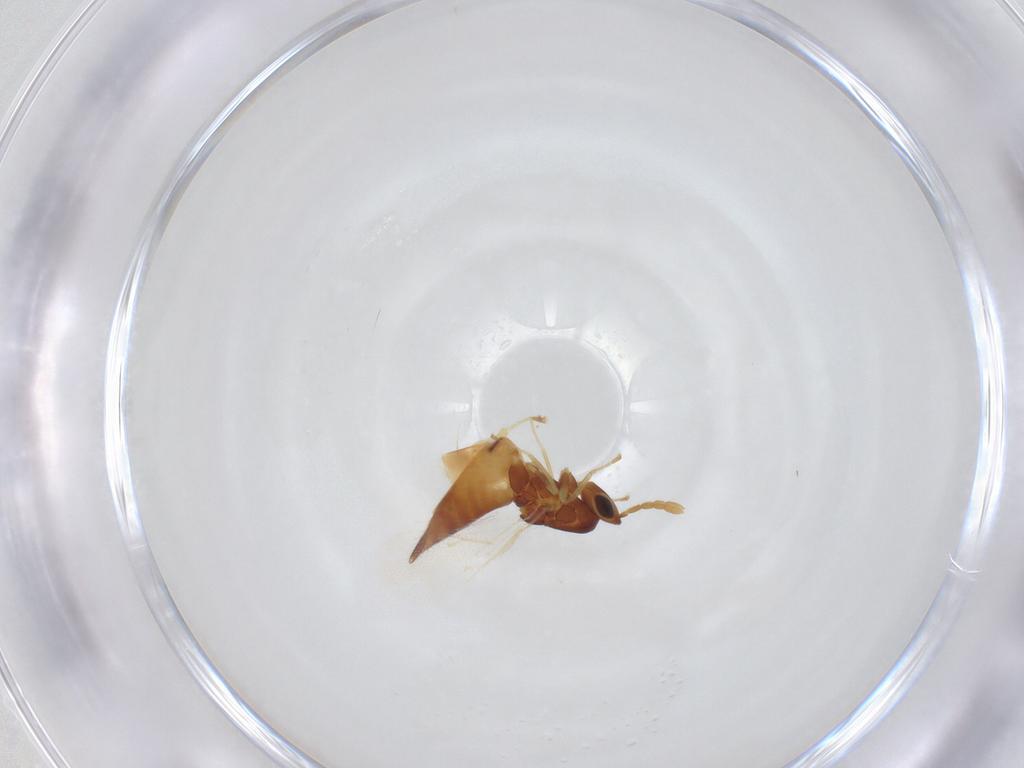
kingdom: Animalia
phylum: Arthropoda
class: Insecta
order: Hymenoptera
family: Eulophidae
